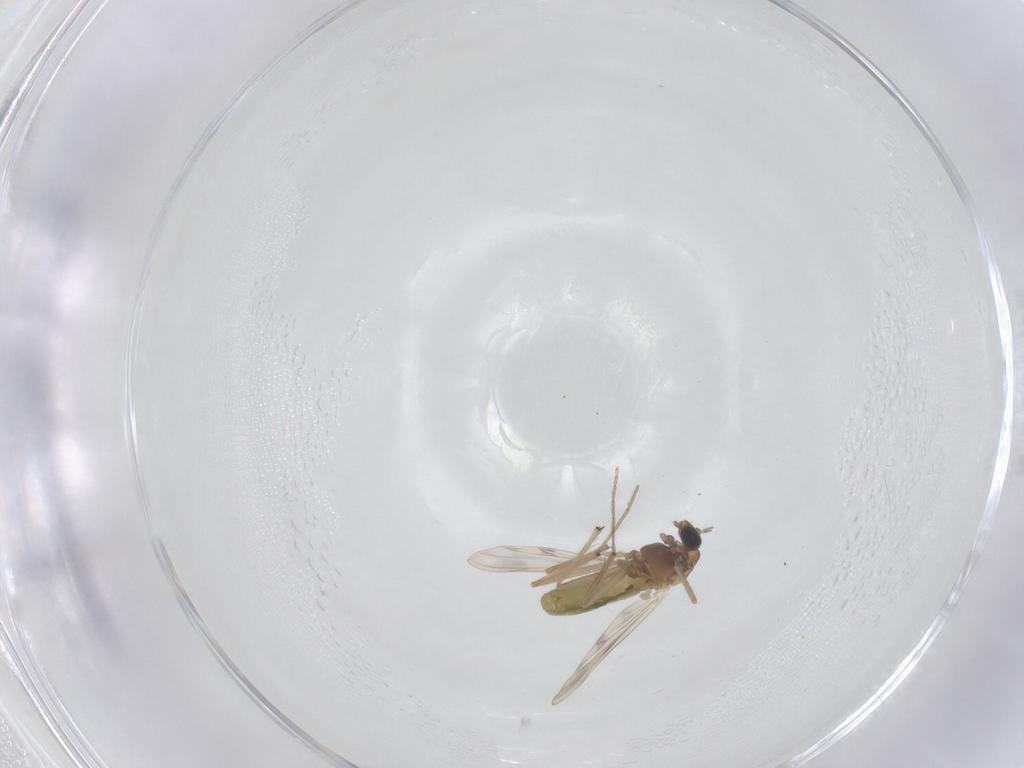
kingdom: Animalia
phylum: Arthropoda
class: Insecta
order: Diptera
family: Chironomidae
